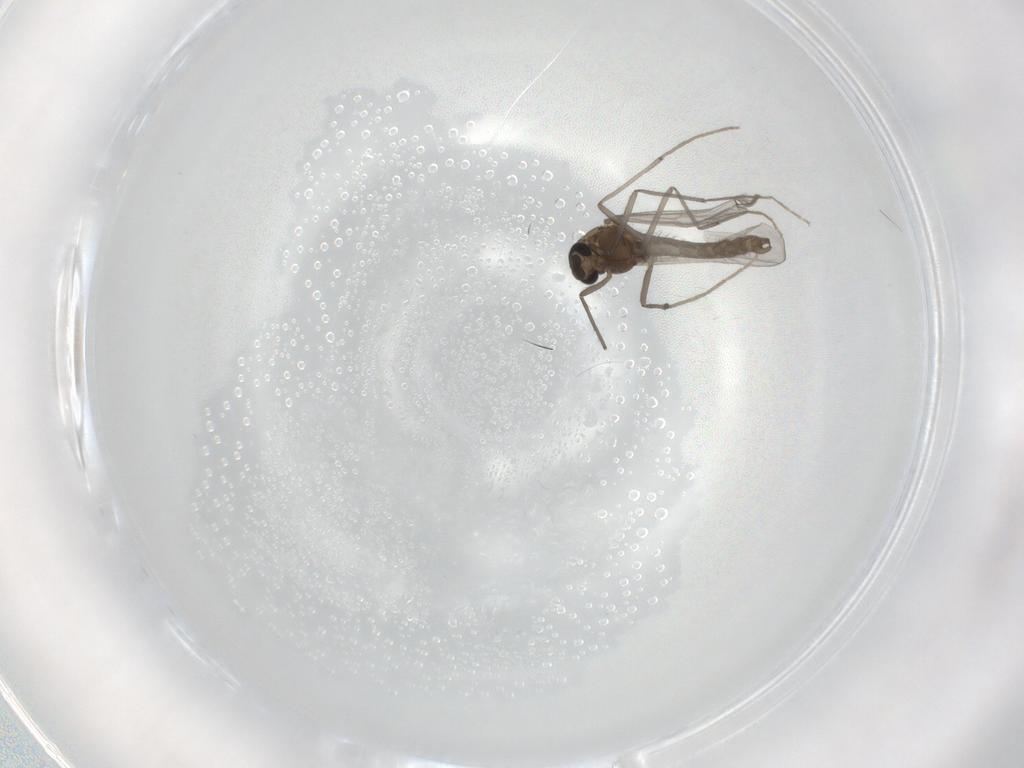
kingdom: Animalia
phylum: Arthropoda
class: Insecta
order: Diptera
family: Chironomidae
